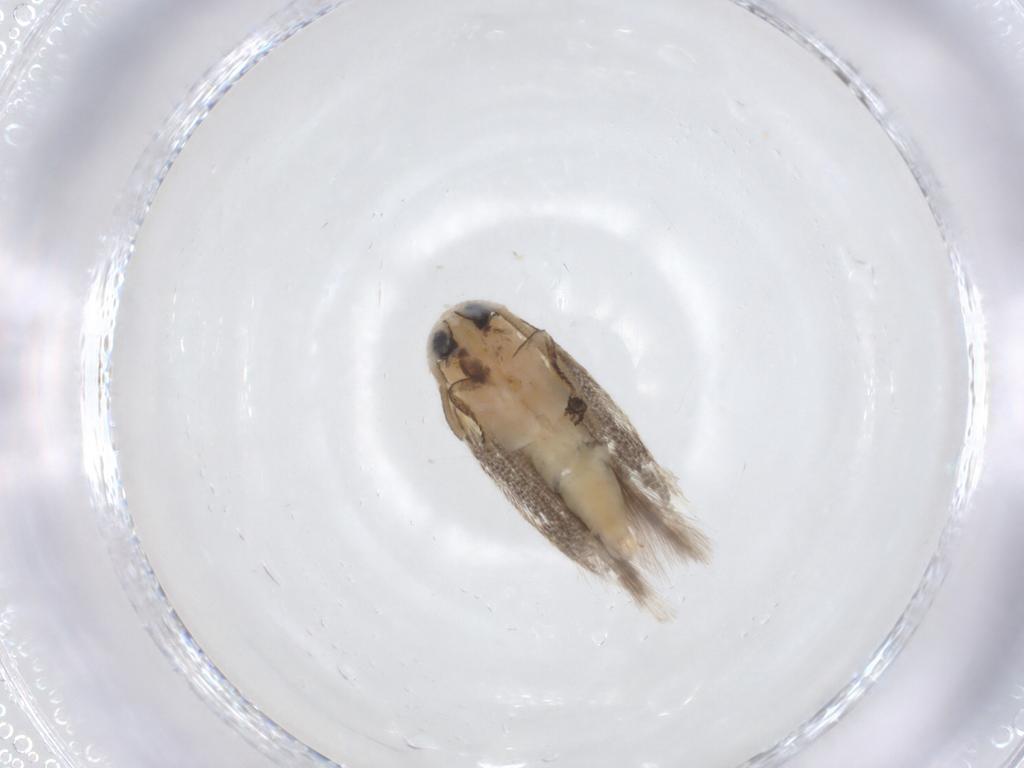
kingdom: Animalia
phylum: Arthropoda
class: Insecta
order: Lepidoptera
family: Opostegidae
